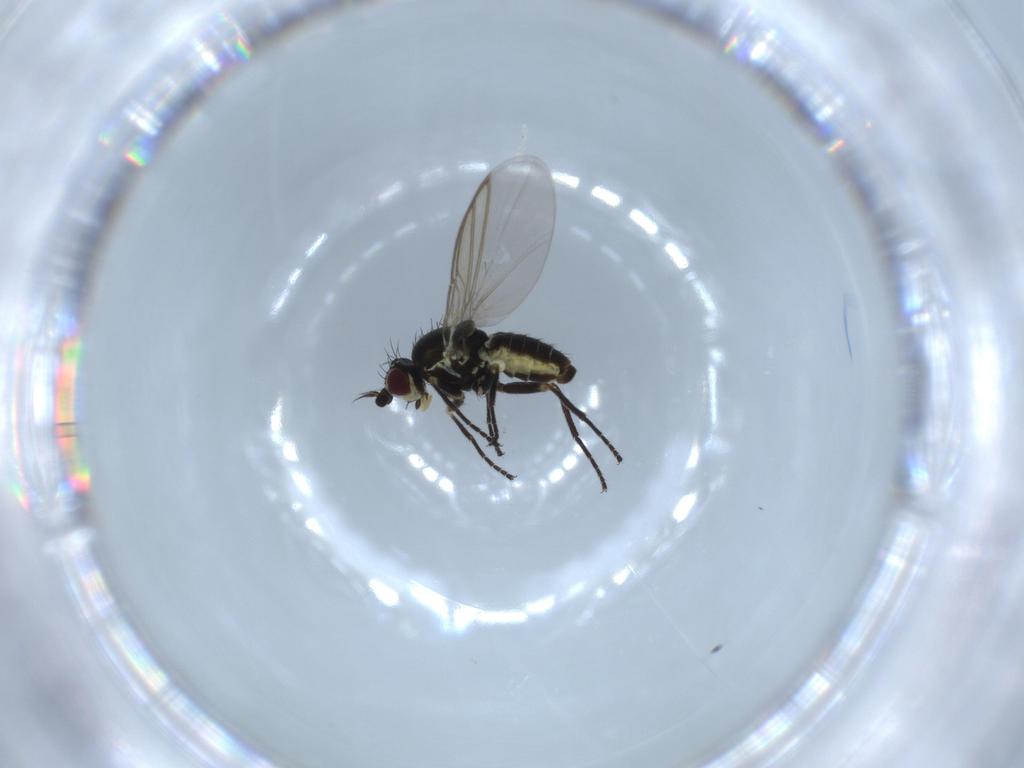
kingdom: Animalia
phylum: Arthropoda
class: Insecta
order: Diptera
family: Agromyzidae
